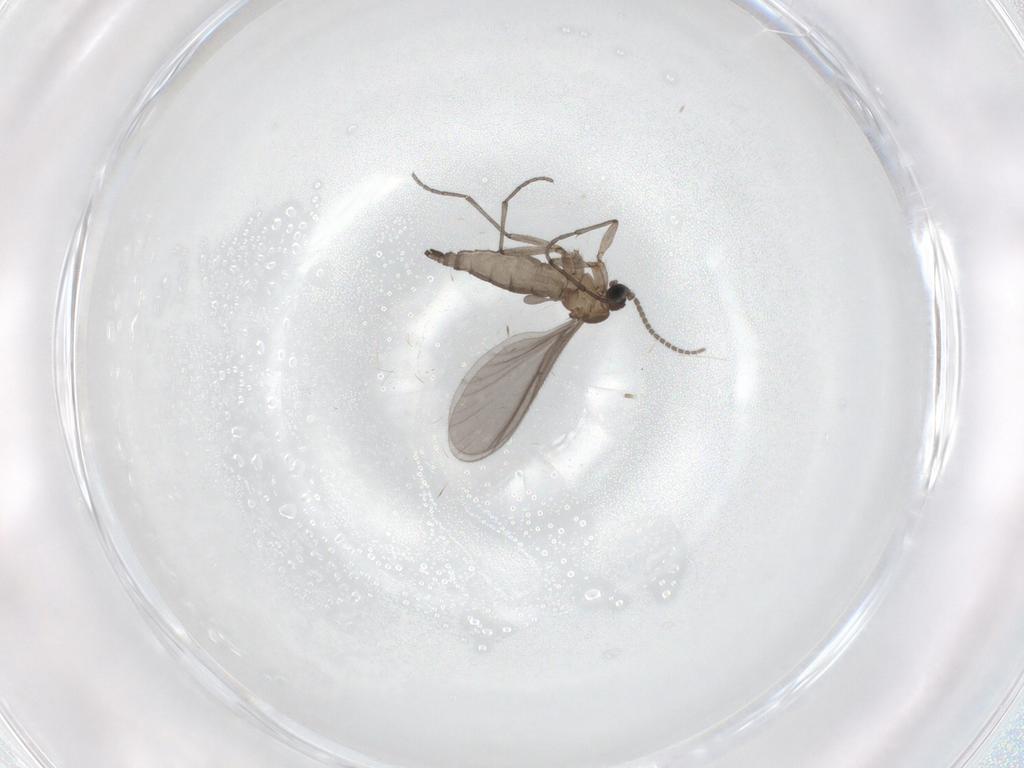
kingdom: Animalia
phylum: Arthropoda
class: Insecta
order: Diptera
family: Sciaridae
